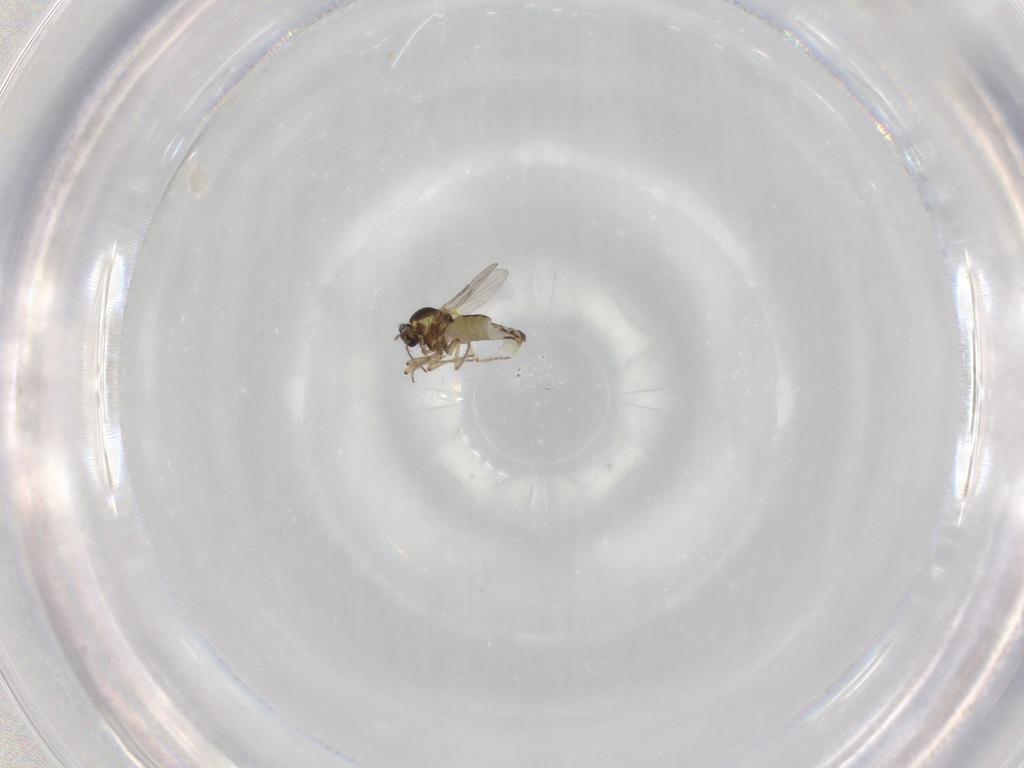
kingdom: Animalia
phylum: Arthropoda
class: Insecta
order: Diptera
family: Ceratopogonidae
